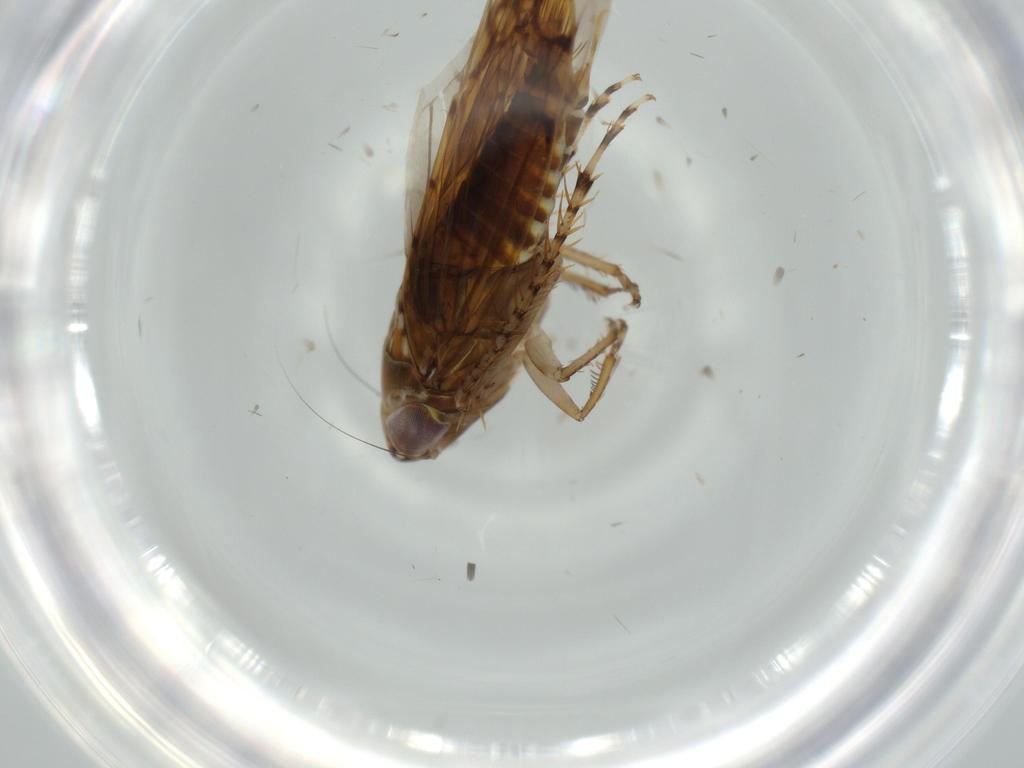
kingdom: Animalia
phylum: Arthropoda
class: Insecta
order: Hemiptera
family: Cicadellidae
